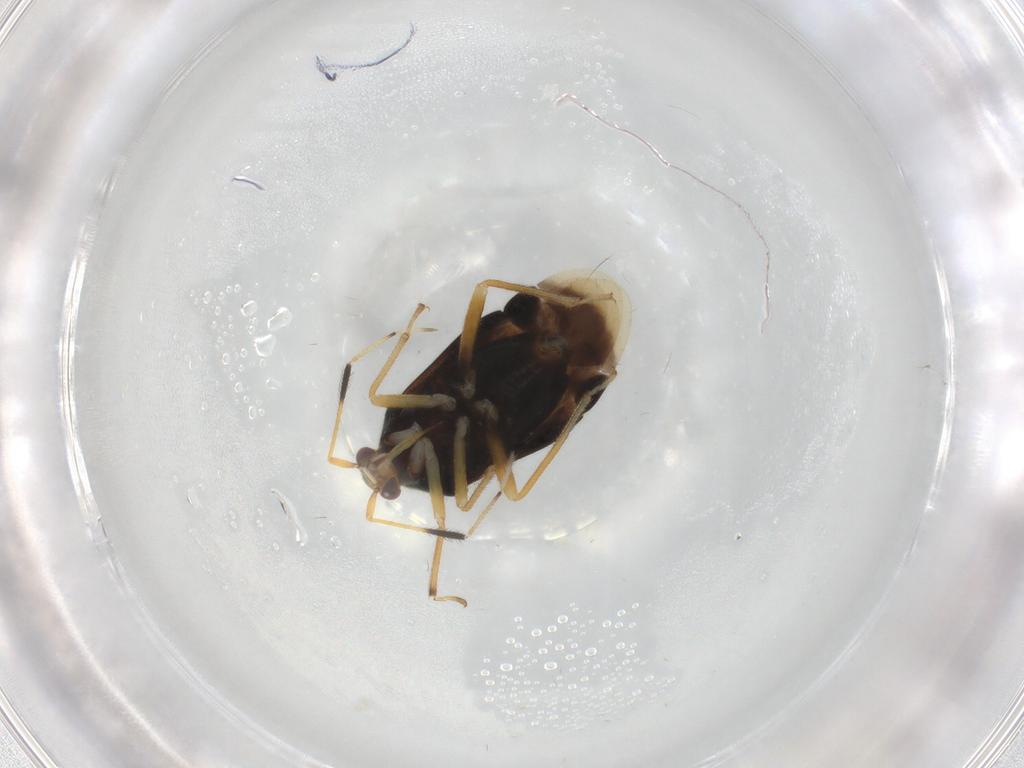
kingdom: Animalia
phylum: Arthropoda
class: Insecta
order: Hemiptera
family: Miridae
